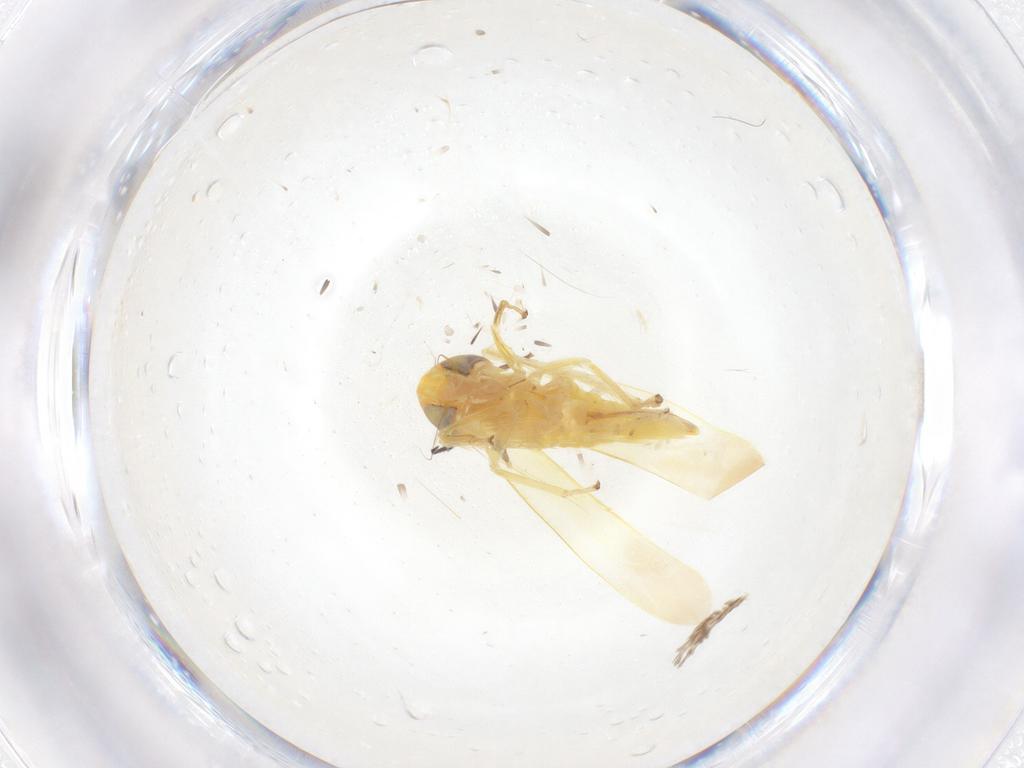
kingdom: Animalia
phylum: Arthropoda
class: Insecta
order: Hemiptera
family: Cicadellidae
